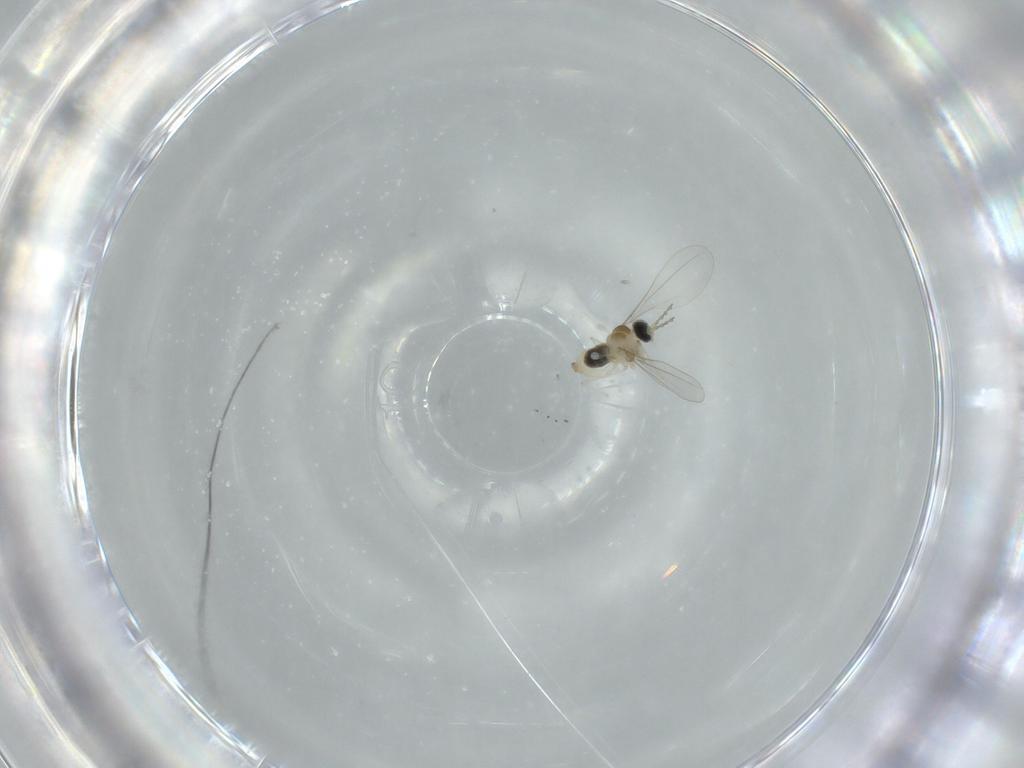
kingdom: Animalia
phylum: Arthropoda
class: Insecta
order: Diptera
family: Cecidomyiidae
